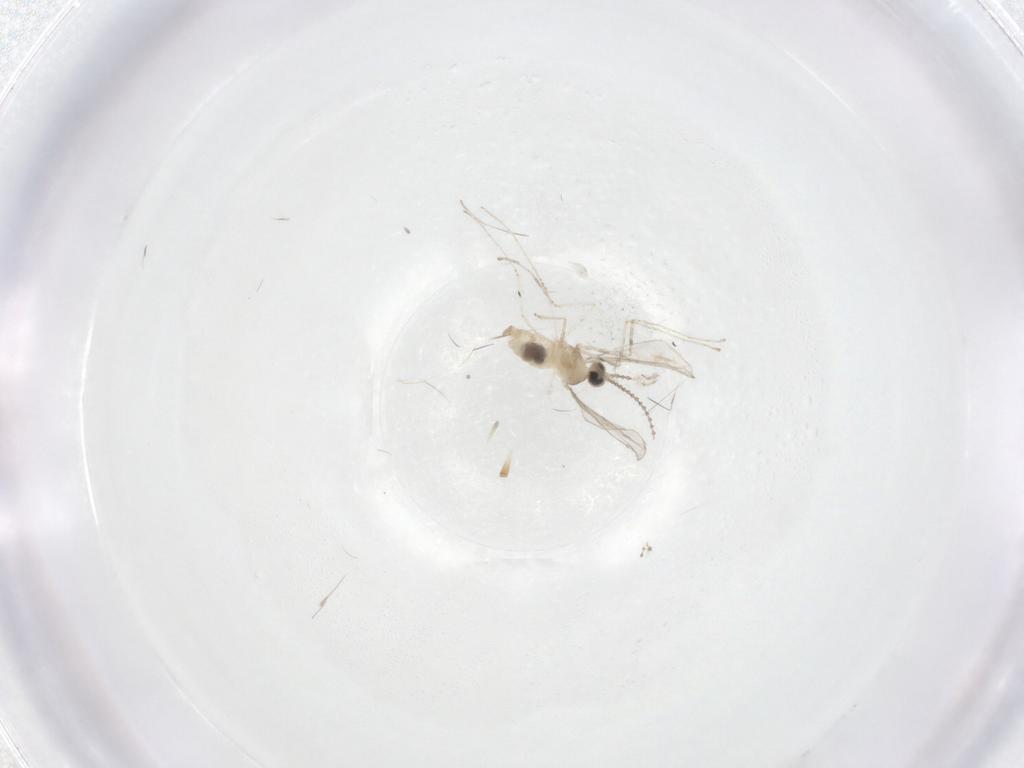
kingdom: Animalia
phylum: Arthropoda
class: Insecta
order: Diptera
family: Cecidomyiidae
